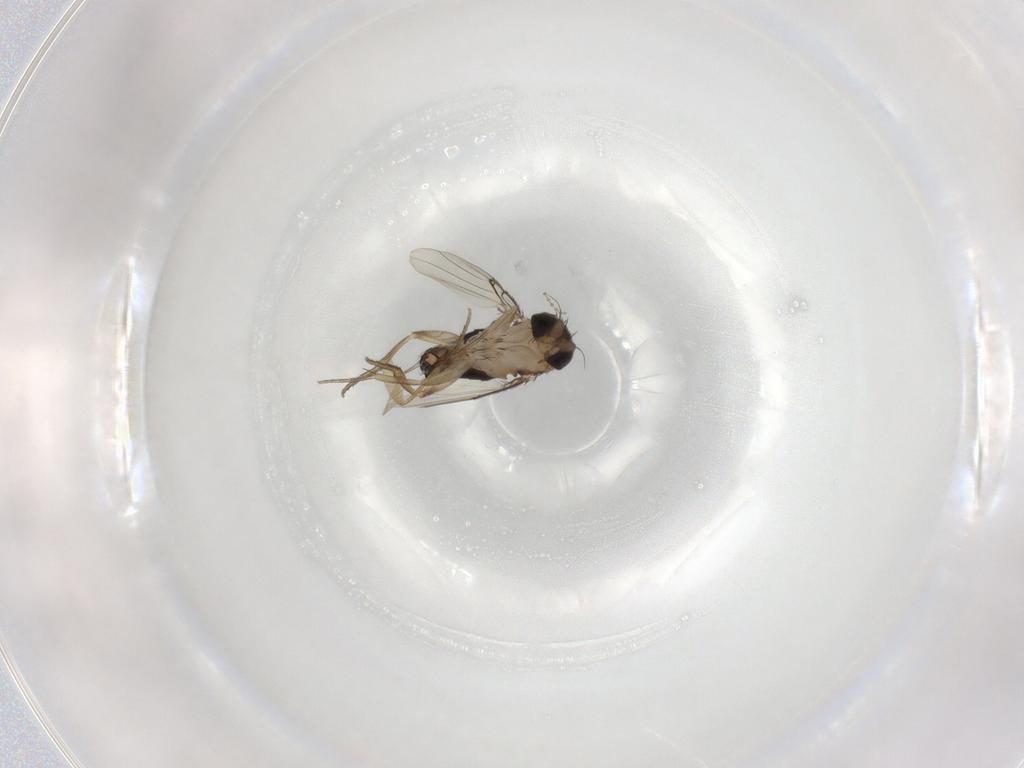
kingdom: Animalia
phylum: Arthropoda
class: Insecta
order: Diptera
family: Phoridae
